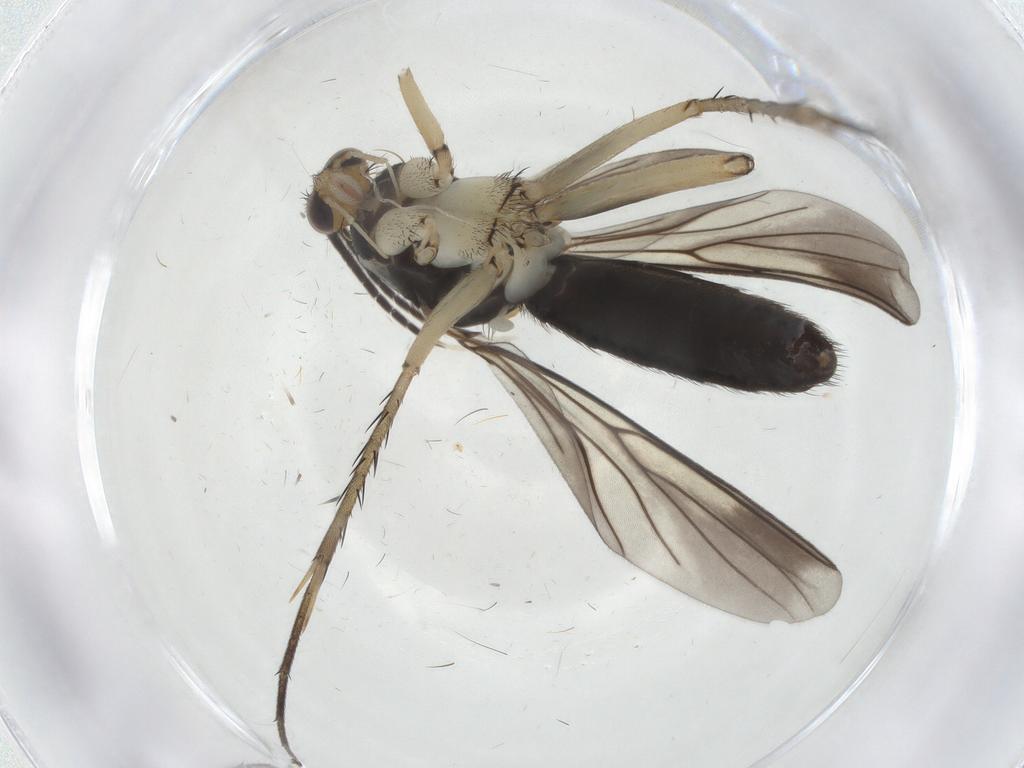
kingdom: Animalia
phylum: Arthropoda
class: Insecta
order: Diptera
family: Mycetophilidae
